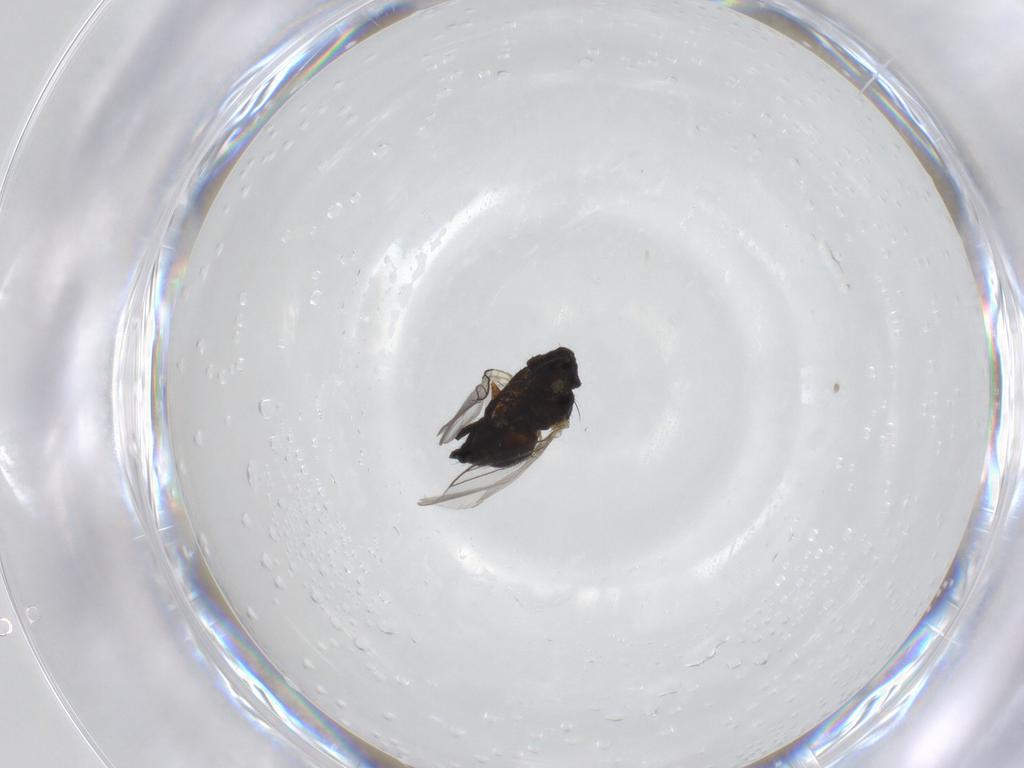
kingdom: Animalia
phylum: Arthropoda
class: Insecta
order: Diptera
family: Agromyzidae
